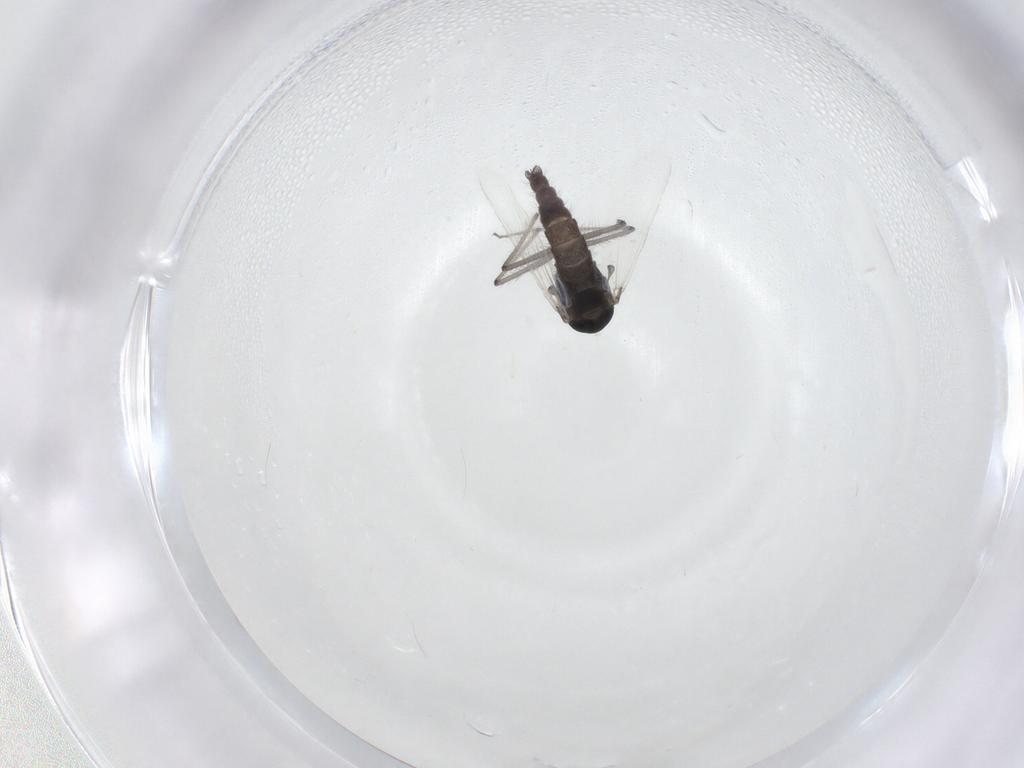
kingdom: Animalia
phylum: Arthropoda
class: Insecta
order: Diptera
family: Chironomidae
